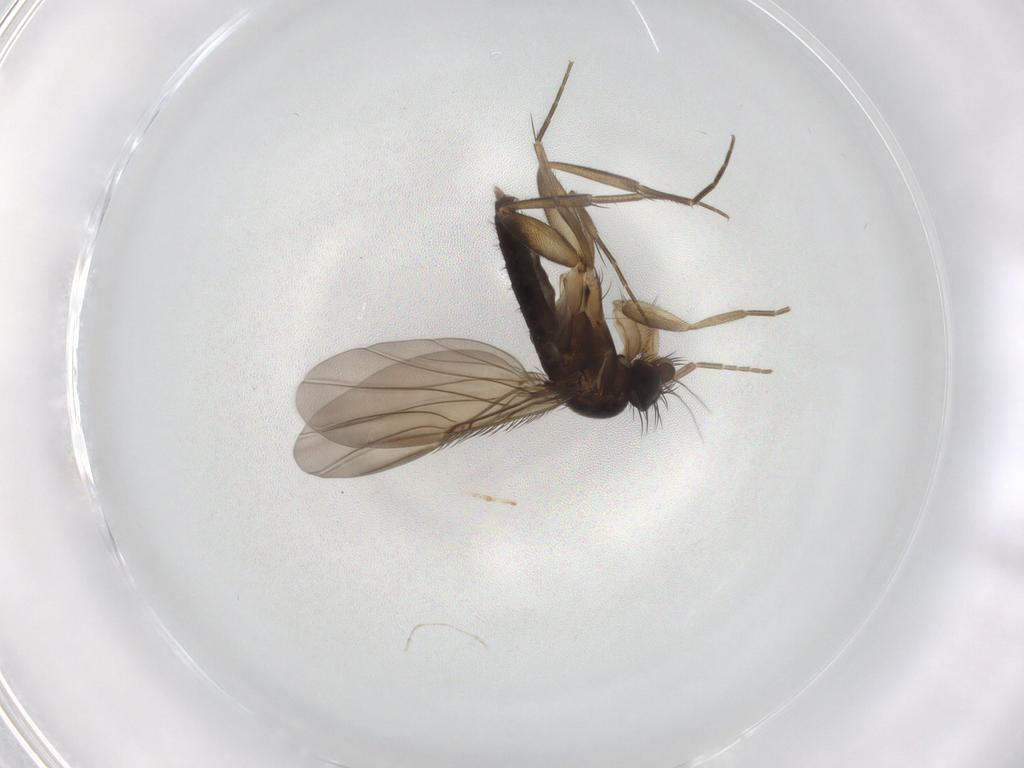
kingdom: Animalia
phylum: Arthropoda
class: Insecta
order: Diptera
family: Phoridae
